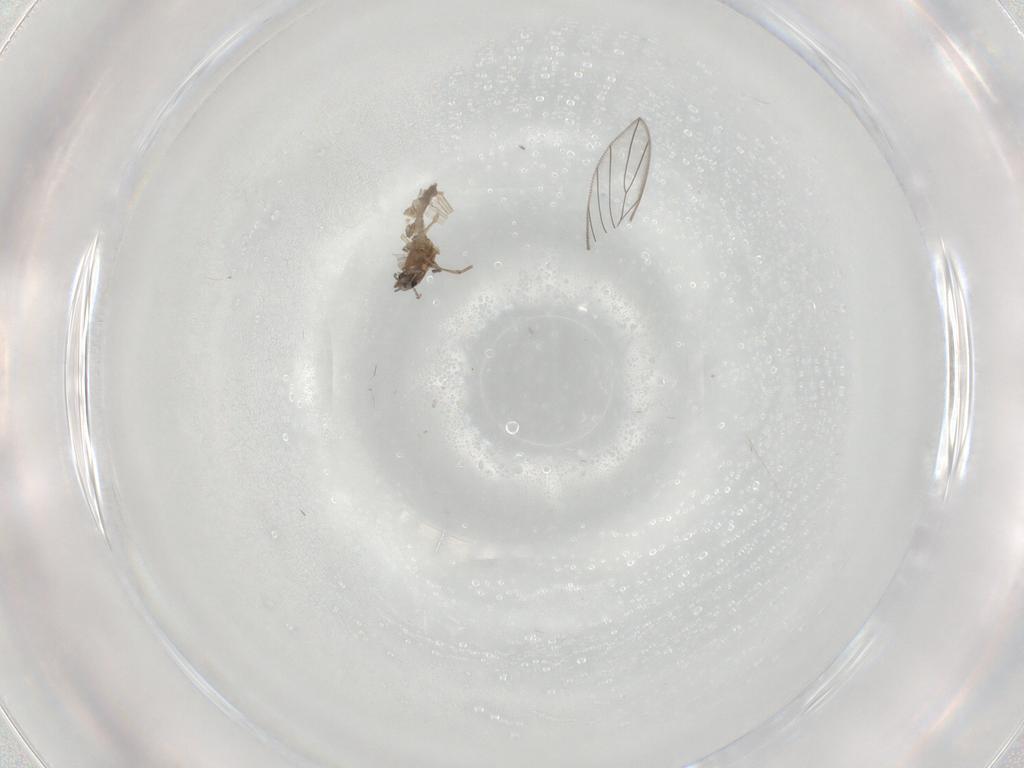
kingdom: Animalia
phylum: Arthropoda
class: Insecta
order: Diptera
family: Chironomidae
